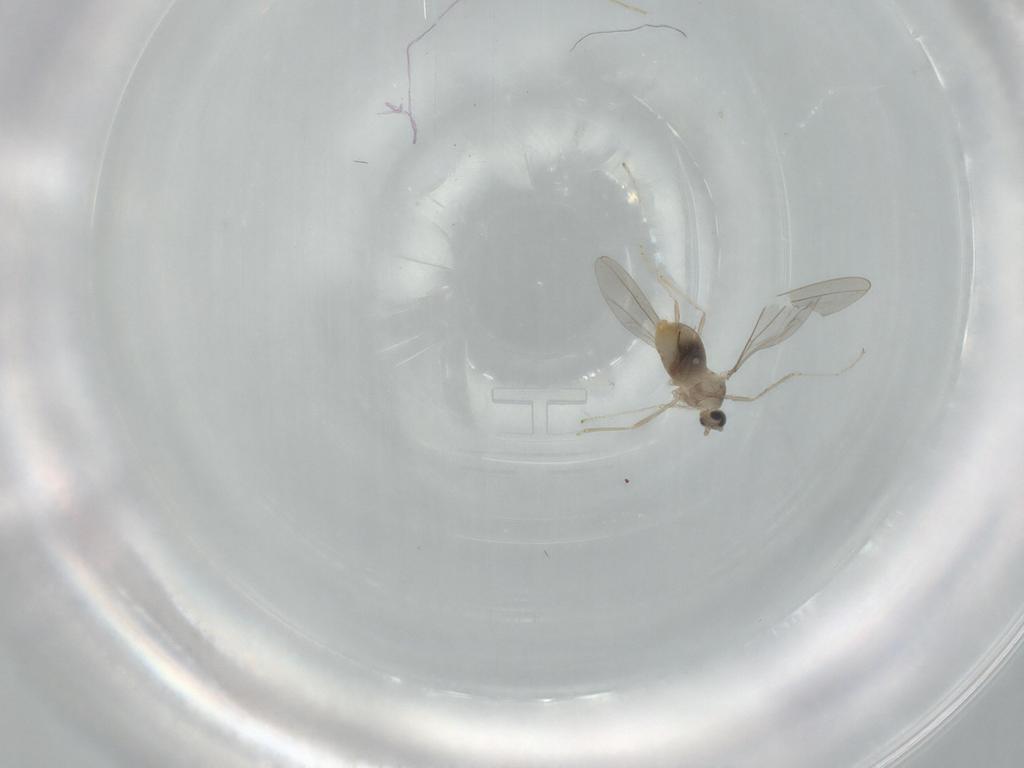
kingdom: Animalia
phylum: Arthropoda
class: Insecta
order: Diptera
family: Cecidomyiidae
